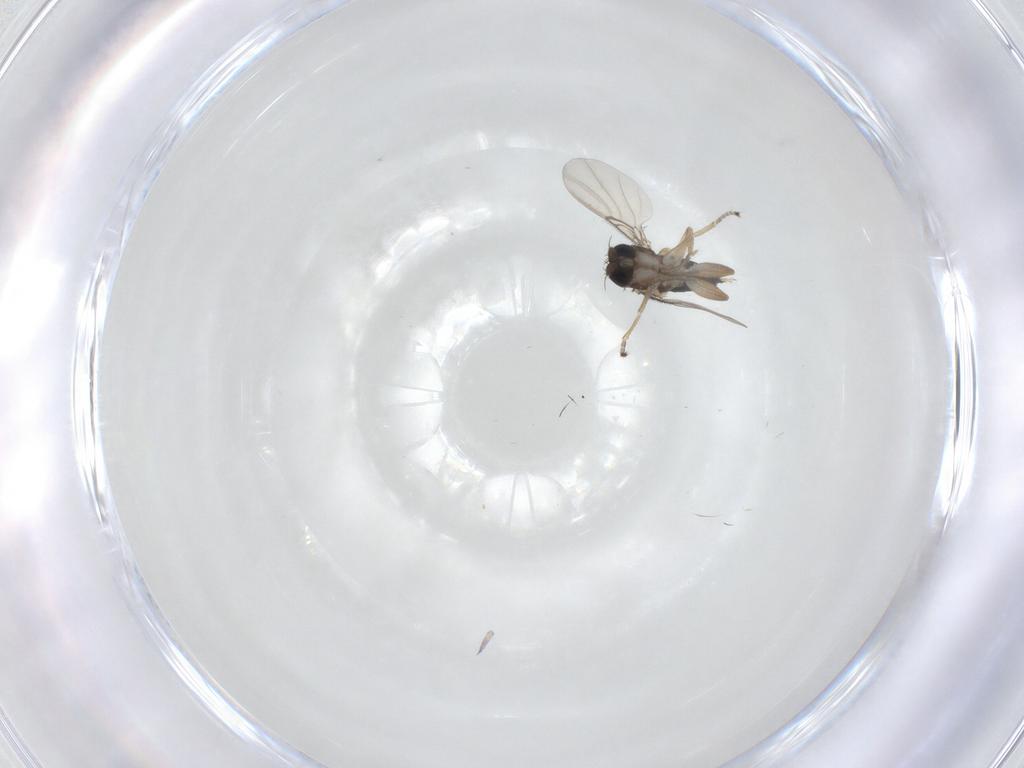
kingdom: Animalia
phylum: Arthropoda
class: Insecta
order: Diptera
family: Phoridae
